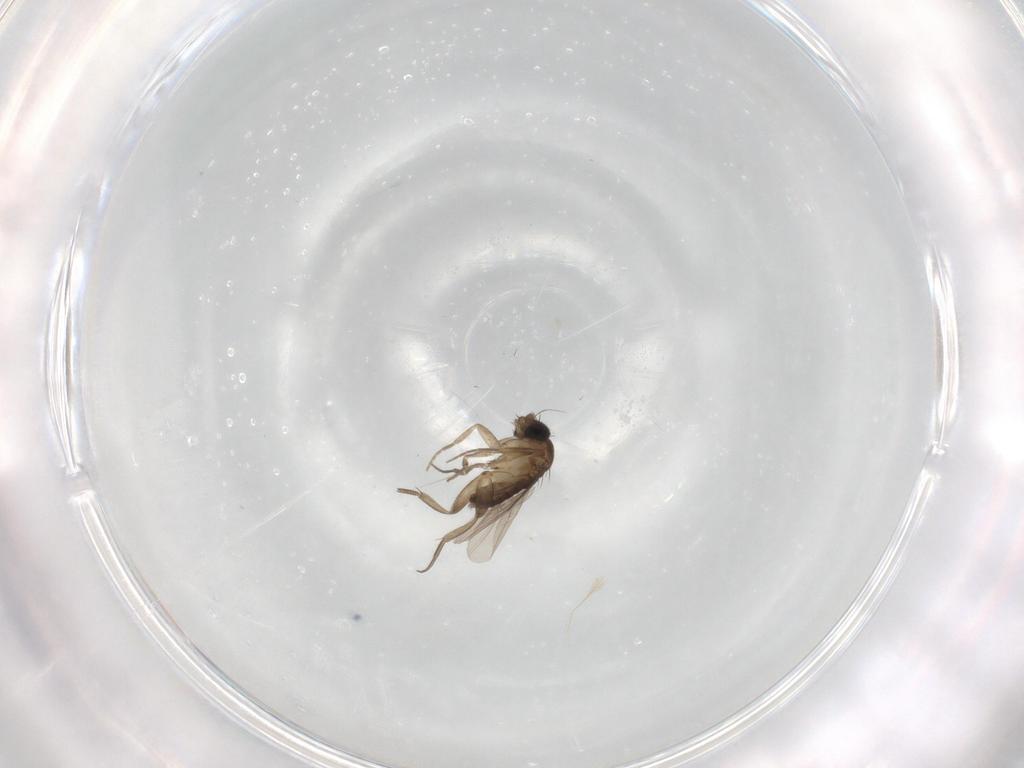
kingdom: Animalia
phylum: Arthropoda
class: Insecta
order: Diptera
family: Phoridae
